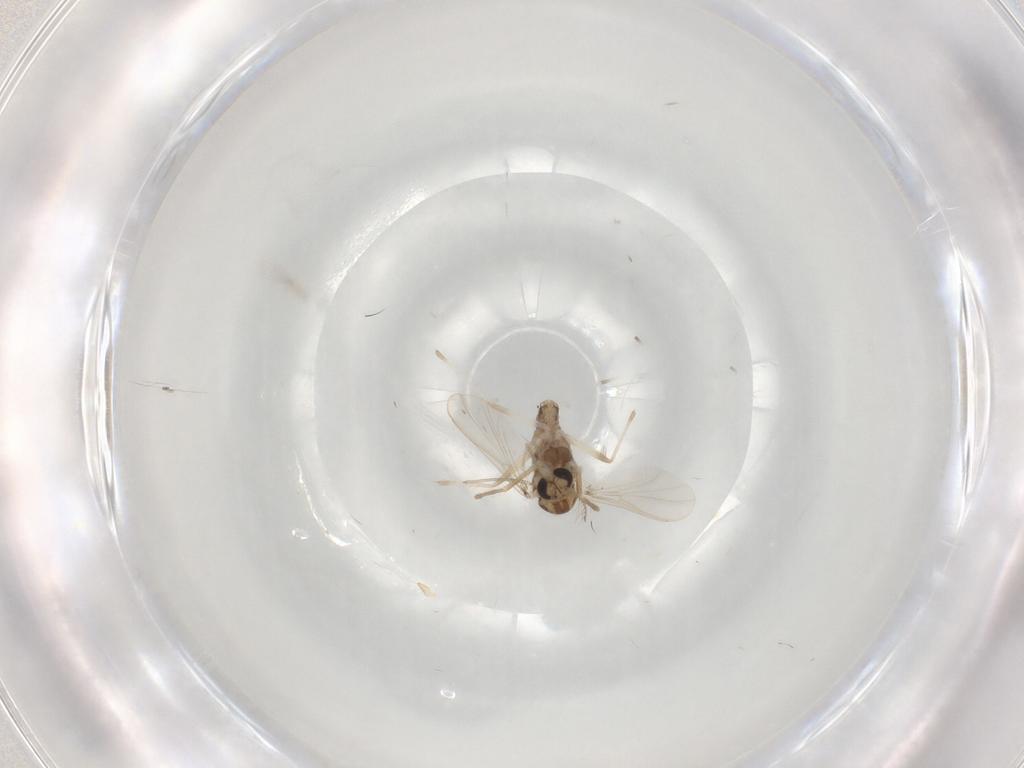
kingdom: Animalia
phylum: Arthropoda
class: Insecta
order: Diptera
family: Chironomidae
